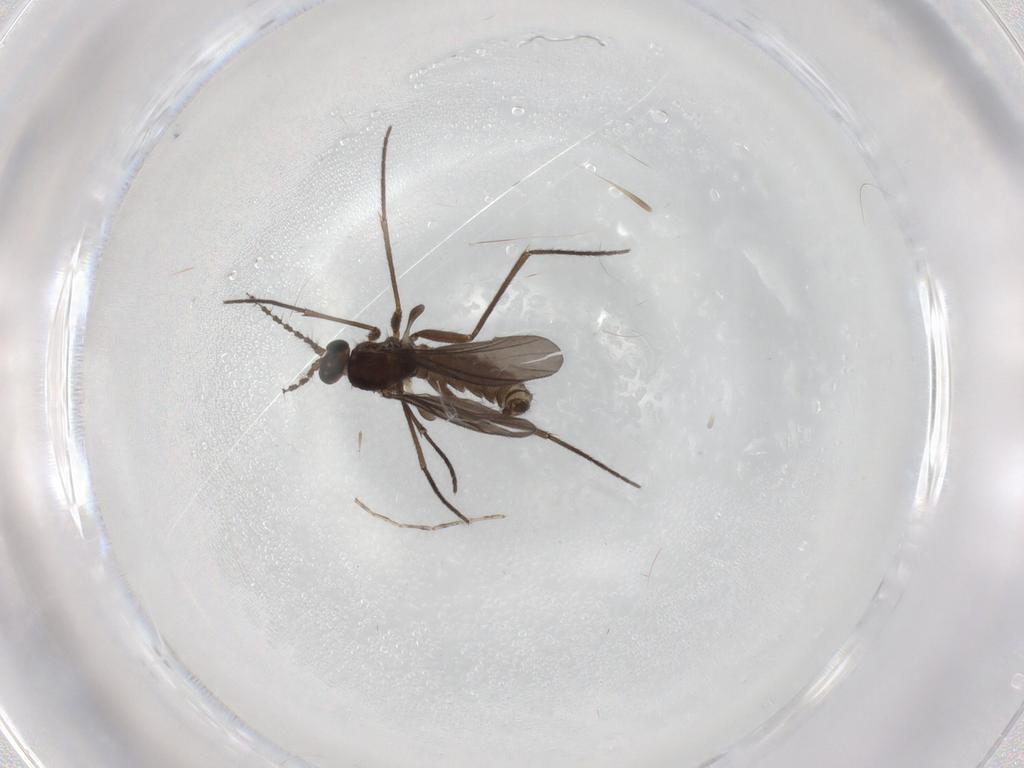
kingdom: Animalia
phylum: Arthropoda
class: Insecta
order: Diptera
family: Sciaridae
